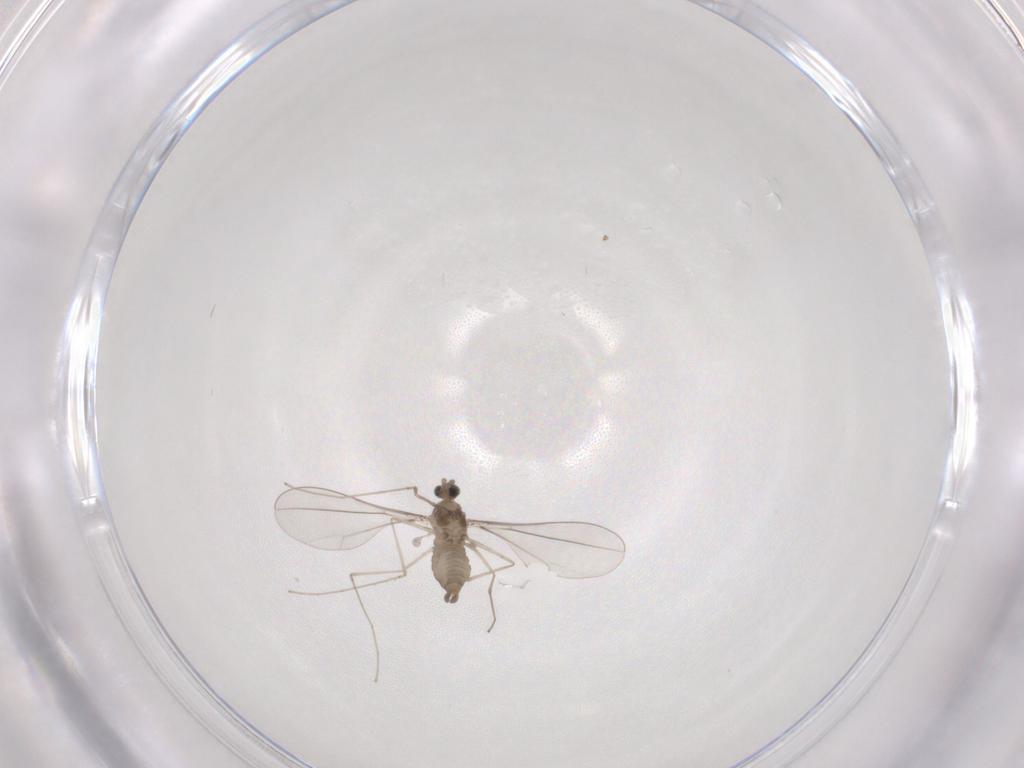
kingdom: Animalia
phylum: Arthropoda
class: Insecta
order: Diptera
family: Cecidomyiidae
